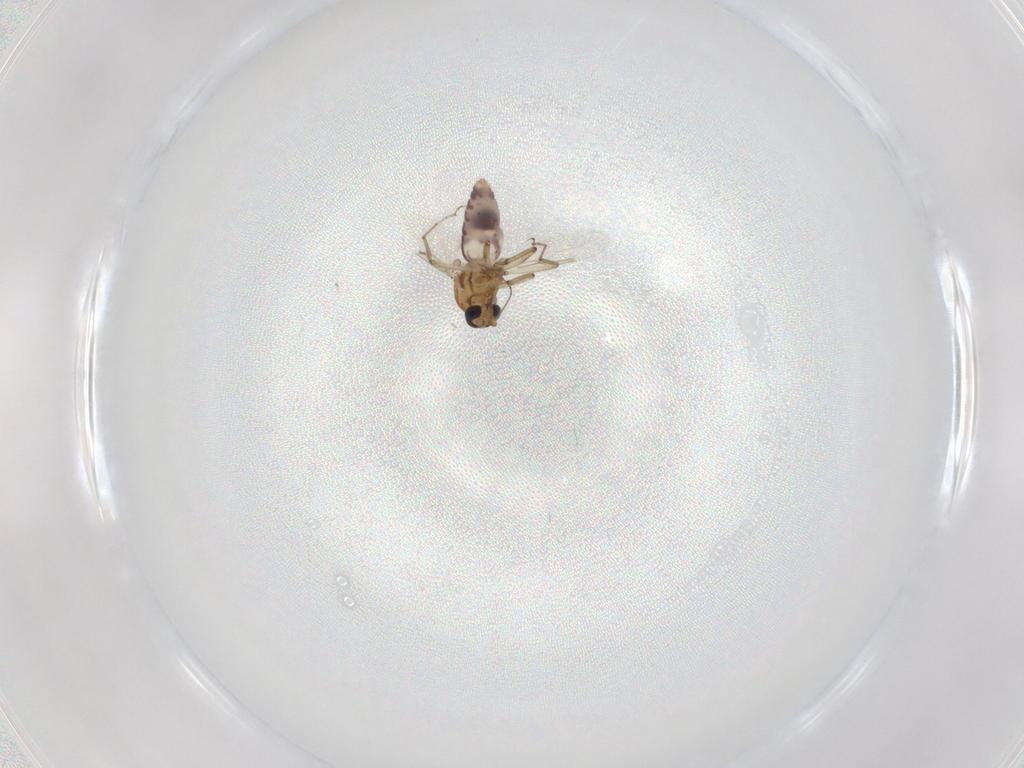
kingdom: Animalia
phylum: Arthropoda
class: Insecta
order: Diptera
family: Ceratopogonidae
